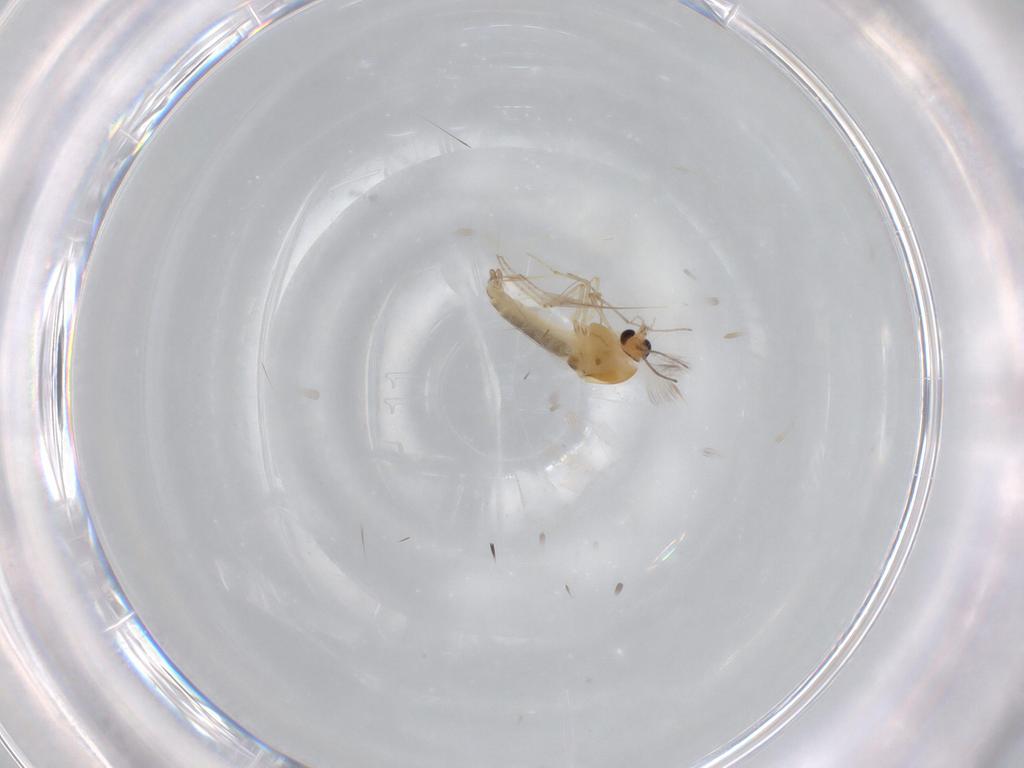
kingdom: Animalia
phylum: Arthropoda
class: Insecta
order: Diptera
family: Chironomidae
